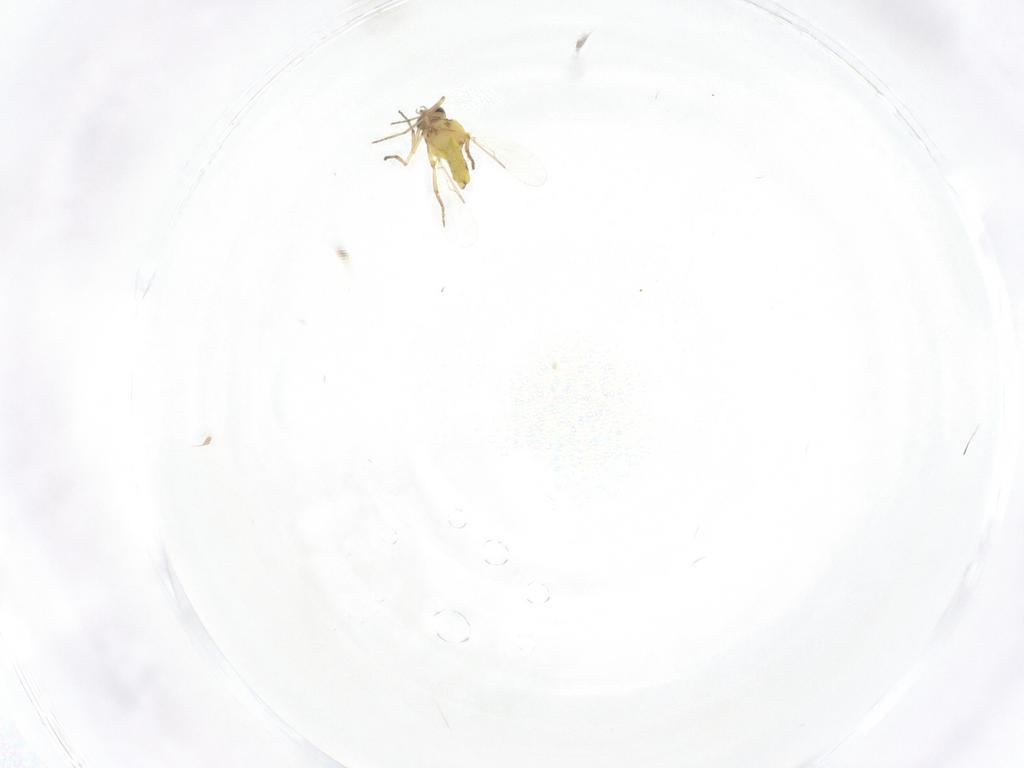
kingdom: Animalia
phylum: Arthropoda
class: Insecta
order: Diptera
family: Ceratopogonidae
